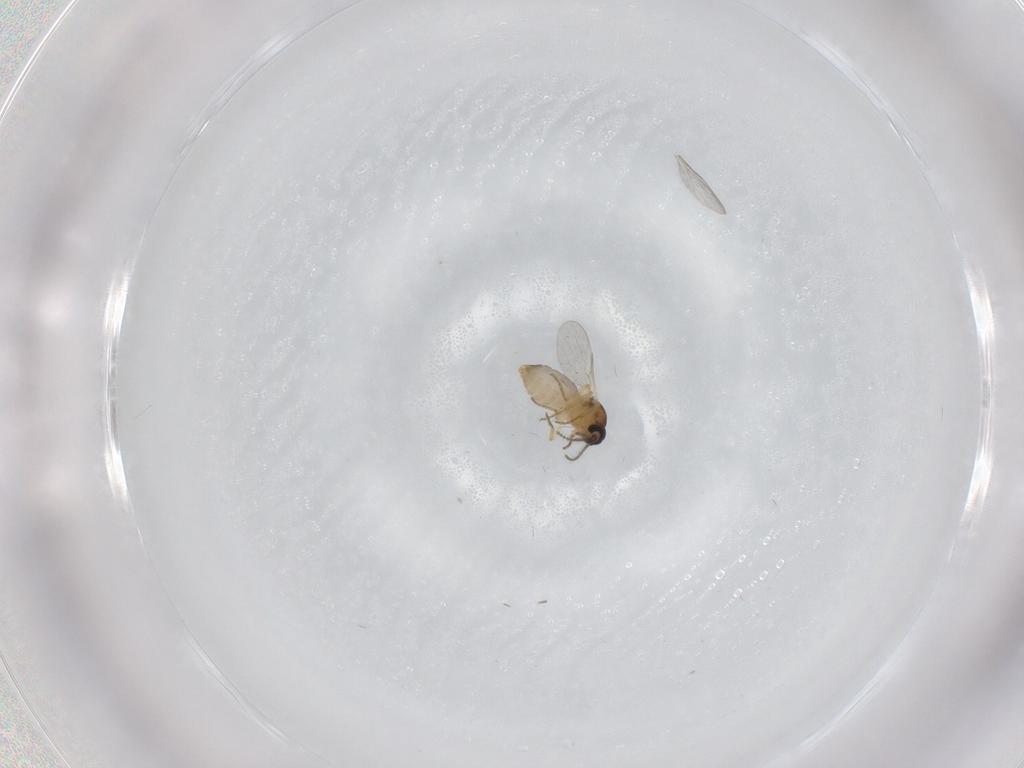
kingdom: Animalia
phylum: Arthropoda
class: Insecta
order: Diptera
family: Ceratopogonidae
